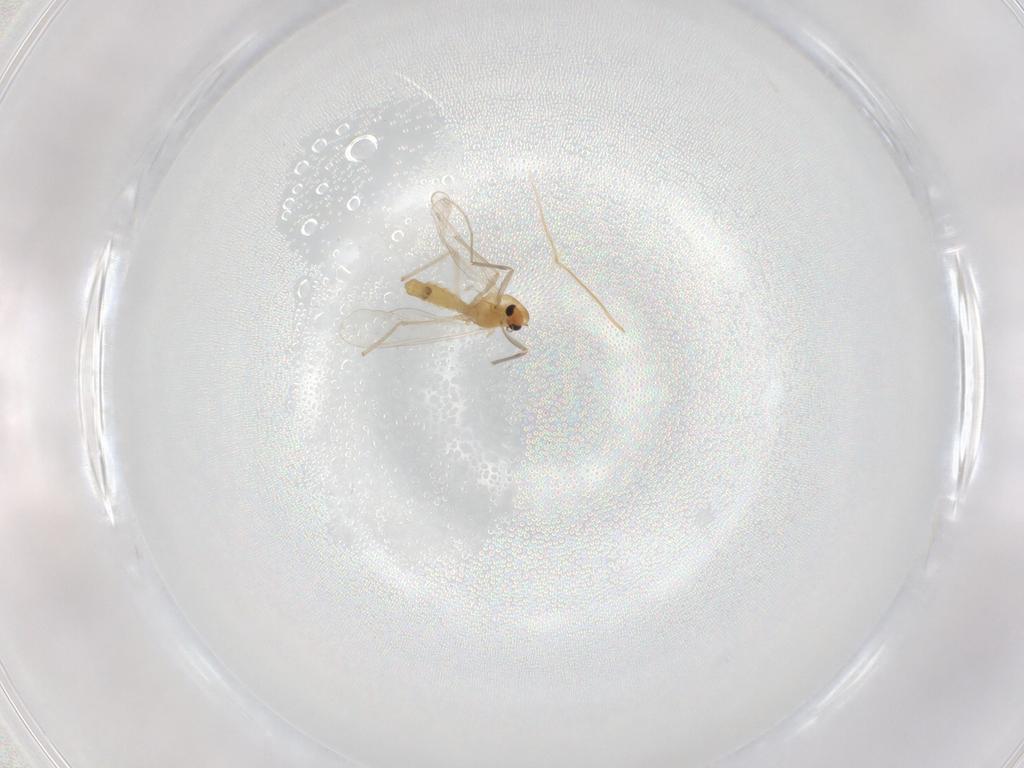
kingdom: Animalia
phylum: Arthropoda
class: Insecta
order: Diptera
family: Chironomidae
